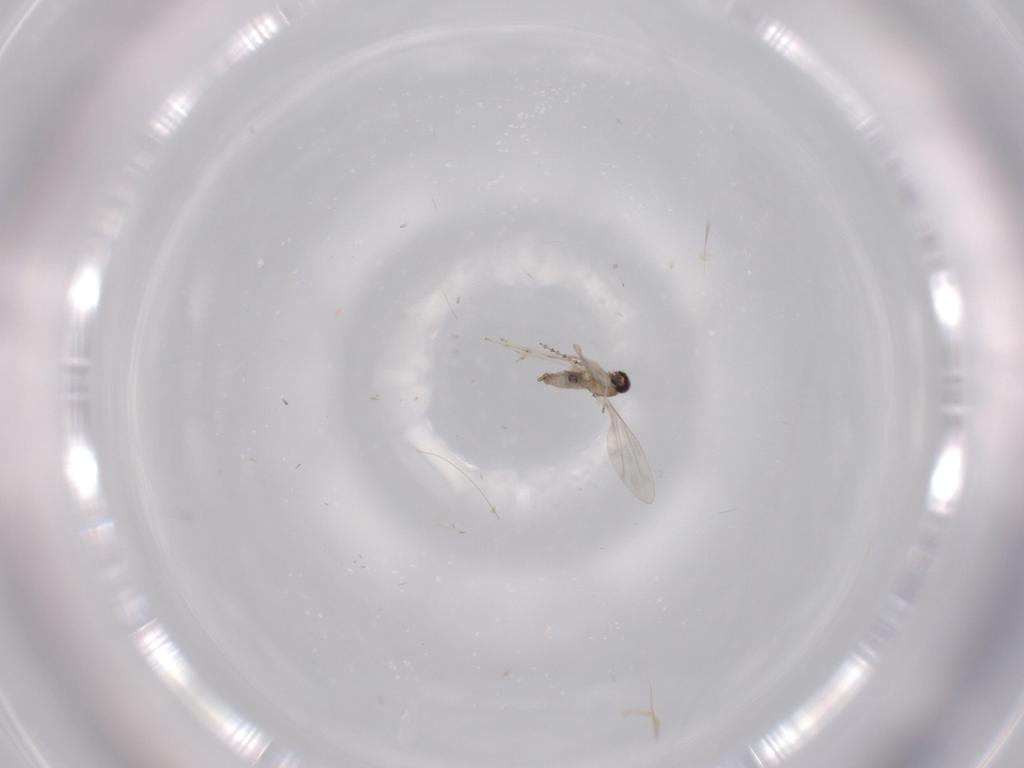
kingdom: Animalia
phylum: Arthropoda
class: Insecta
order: Diptera
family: Cecidomyiidae
